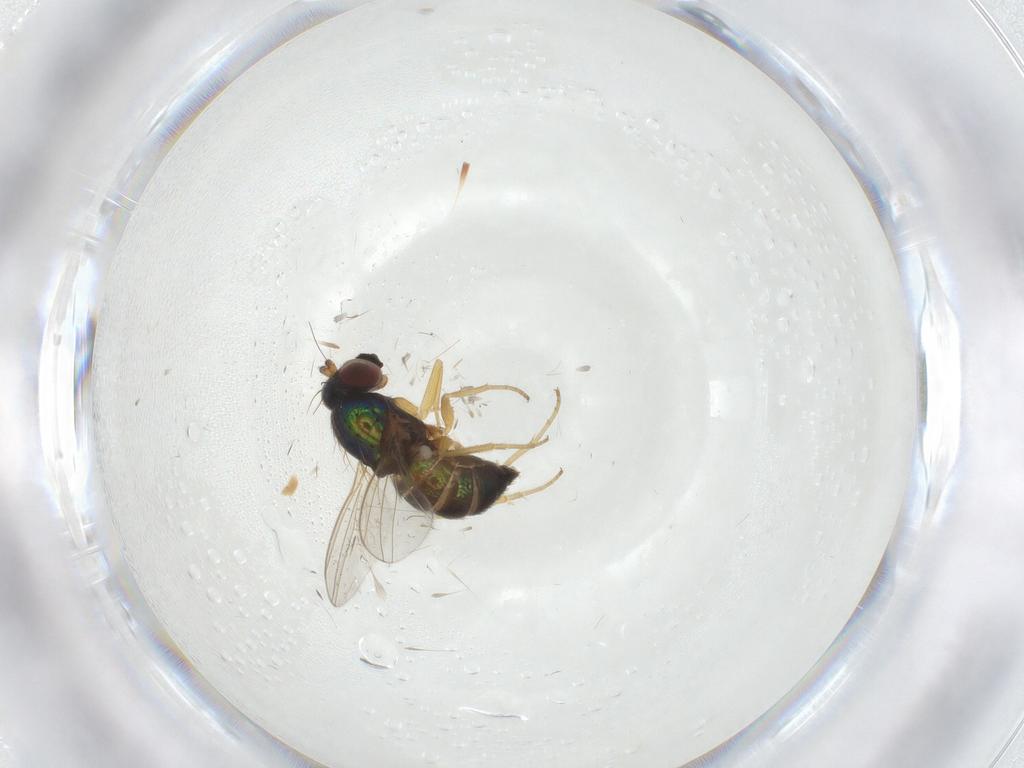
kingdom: Animalia
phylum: Arthropoda
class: Insecta
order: Diptera
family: Dolichopodidae
